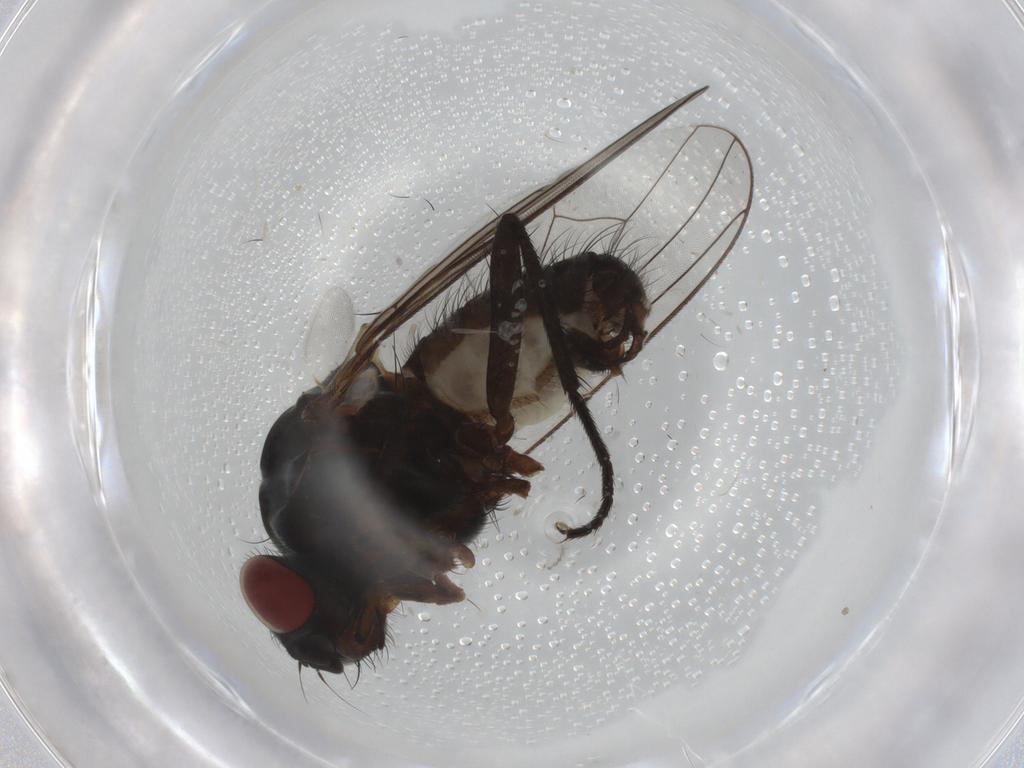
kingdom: Animalia
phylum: Arthropoda
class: Insecta
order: Diptera
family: Anthomyiidae
